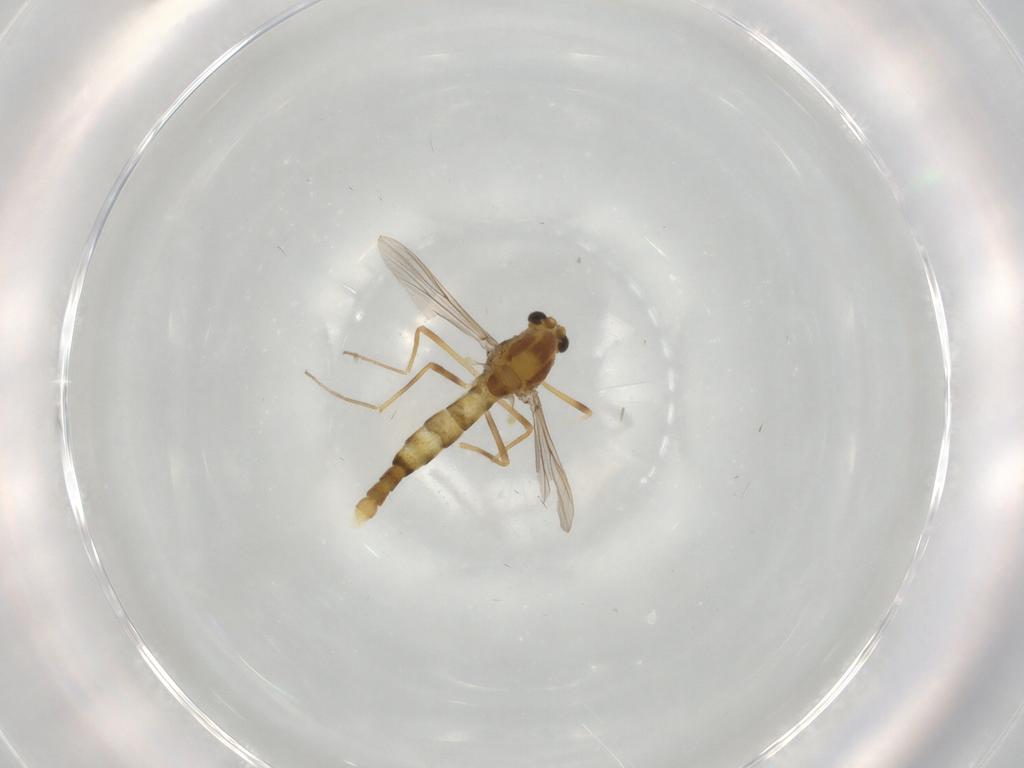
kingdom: Animalia
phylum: Arthropoda
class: Insecta
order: Diptera
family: Chironomidae
